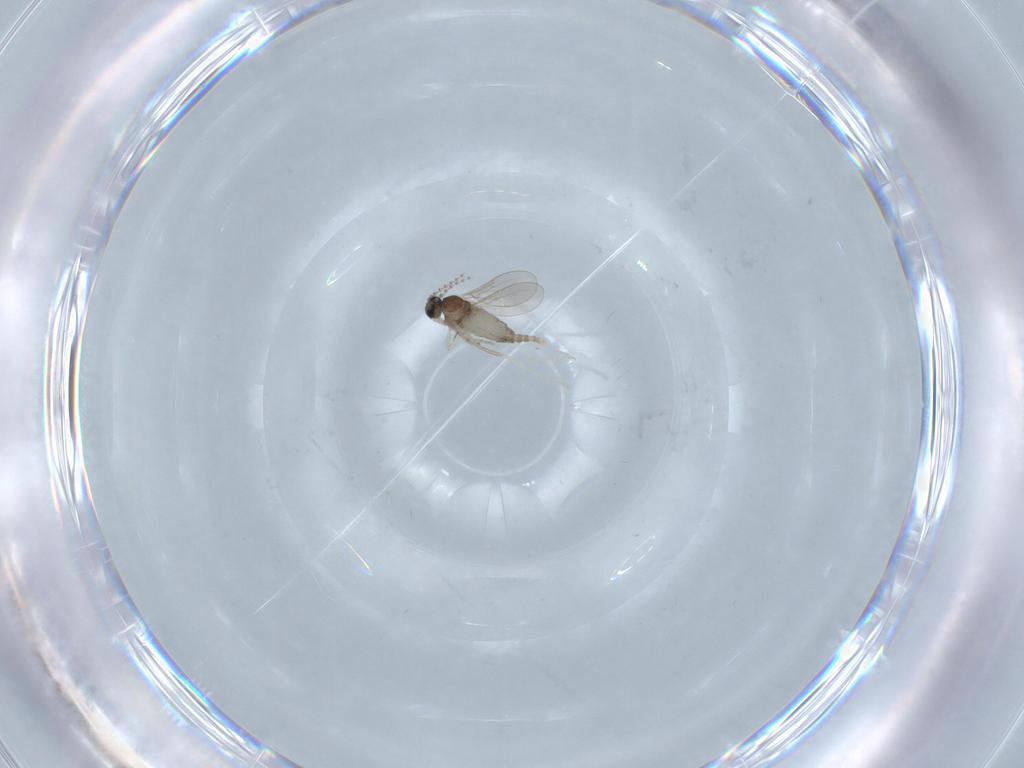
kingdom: Animalia
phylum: Arthropoda
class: Insecta
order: Diptera
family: Cecidomyiidae
